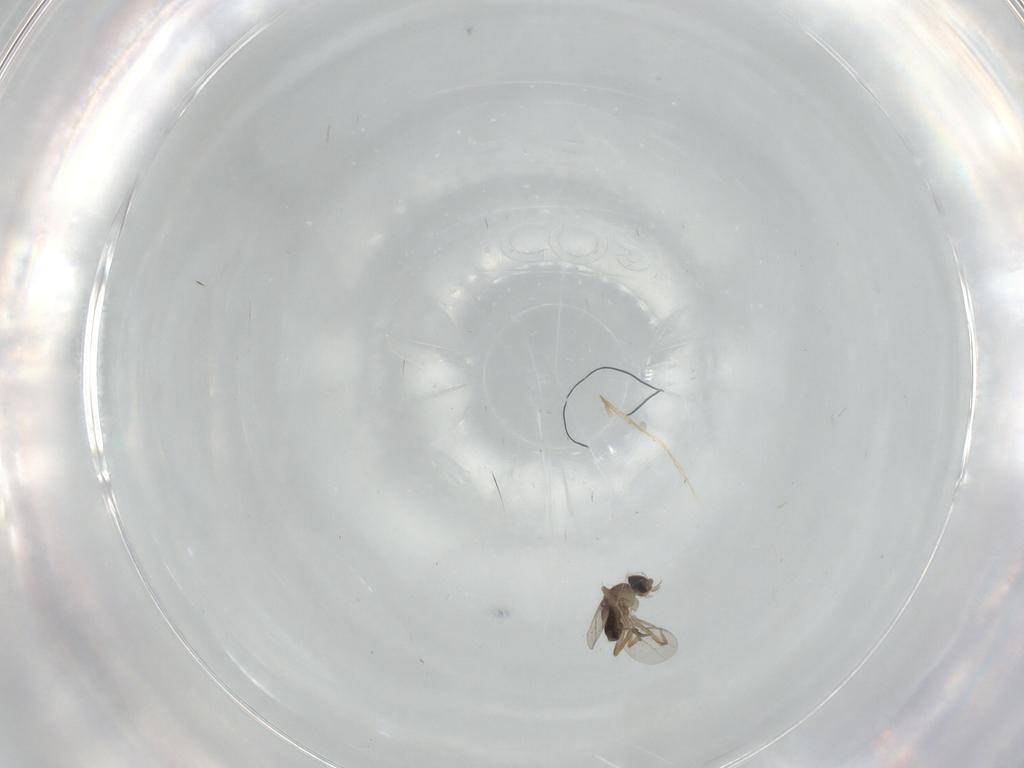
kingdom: Animalia
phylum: Arthropoda
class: Insecta
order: Diptera
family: Phoridae
